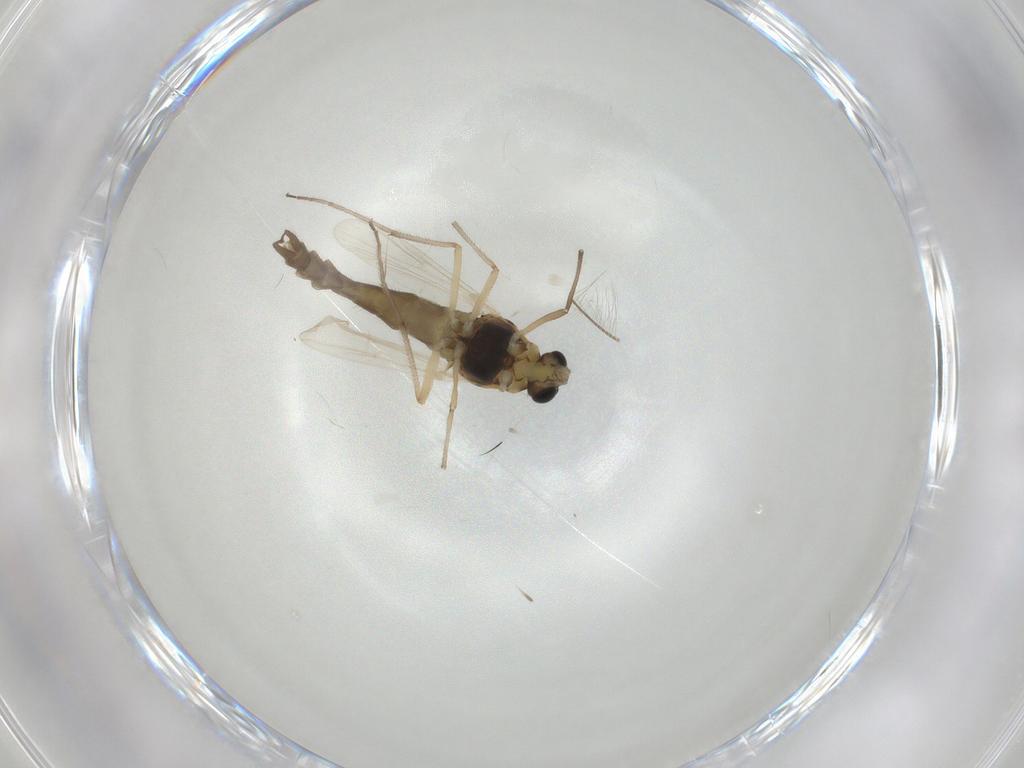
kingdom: Animalia
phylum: Arthropoda
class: Insecta
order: Diptera
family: Chironomidae
